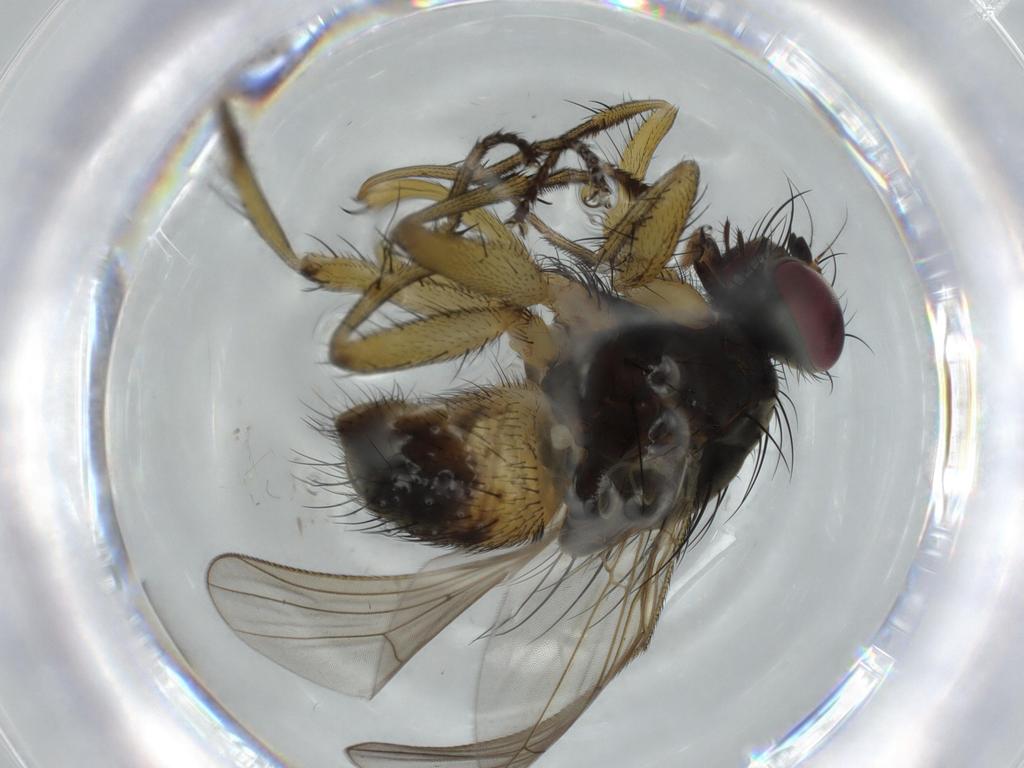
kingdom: Animalia
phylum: Arthropoda
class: Insecta
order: Diptera
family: Muscidae
